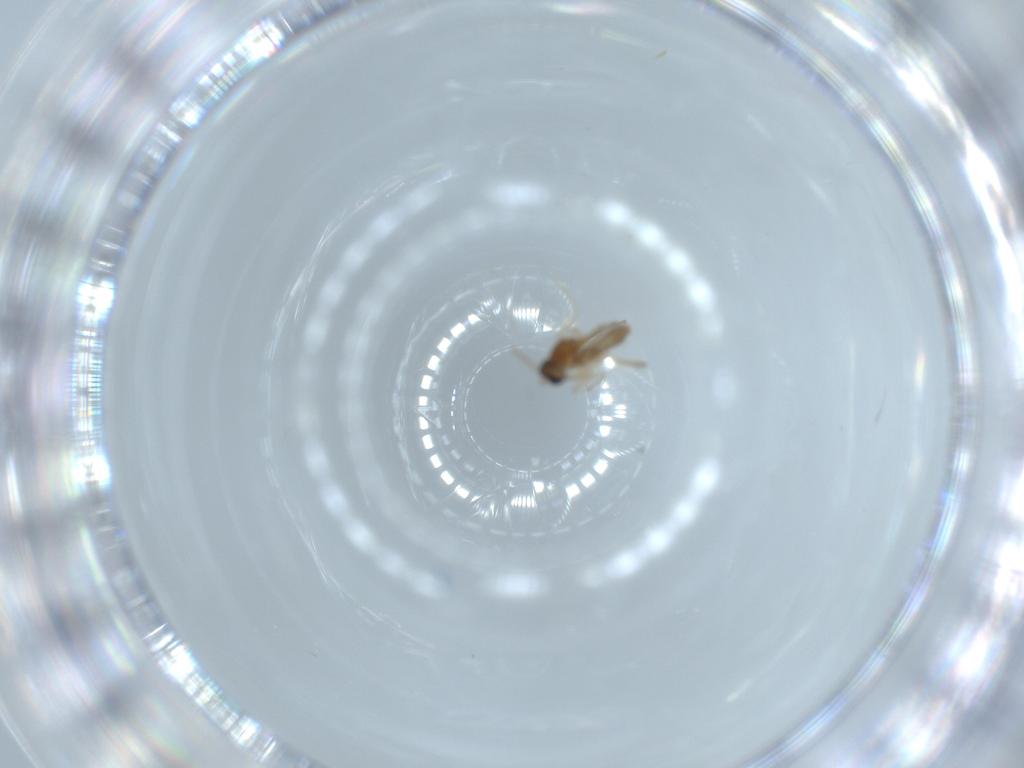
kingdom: Animalia
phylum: Arthropoda
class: Insecta
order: Diptera
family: Cecidomyiidae
